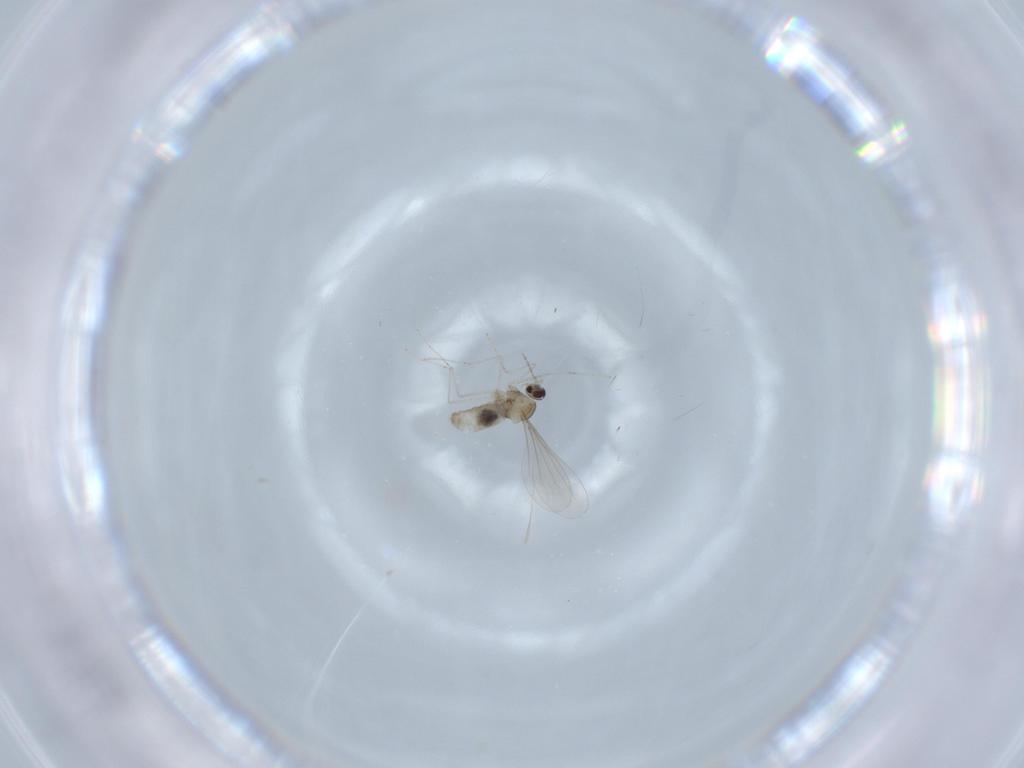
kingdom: Animalia
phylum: Arthropoda
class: Insecta
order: Diptera
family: Cecidomyiidae
